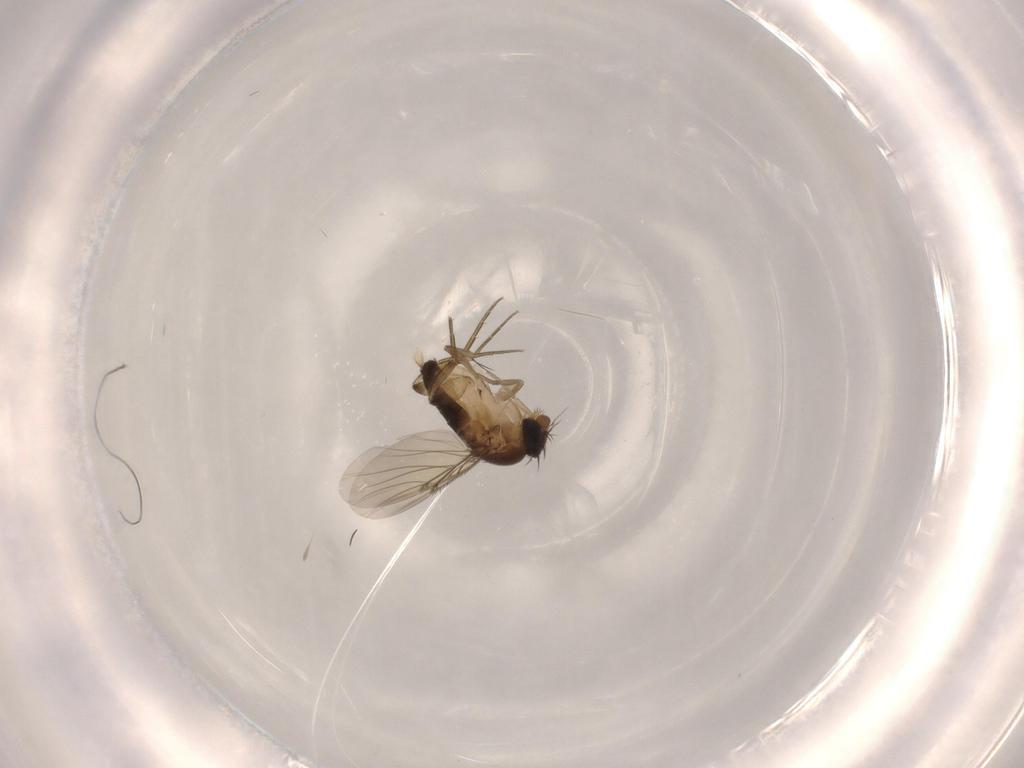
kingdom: Animalia
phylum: Arthropoda
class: Insecta
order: Diptera
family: Phoridae
